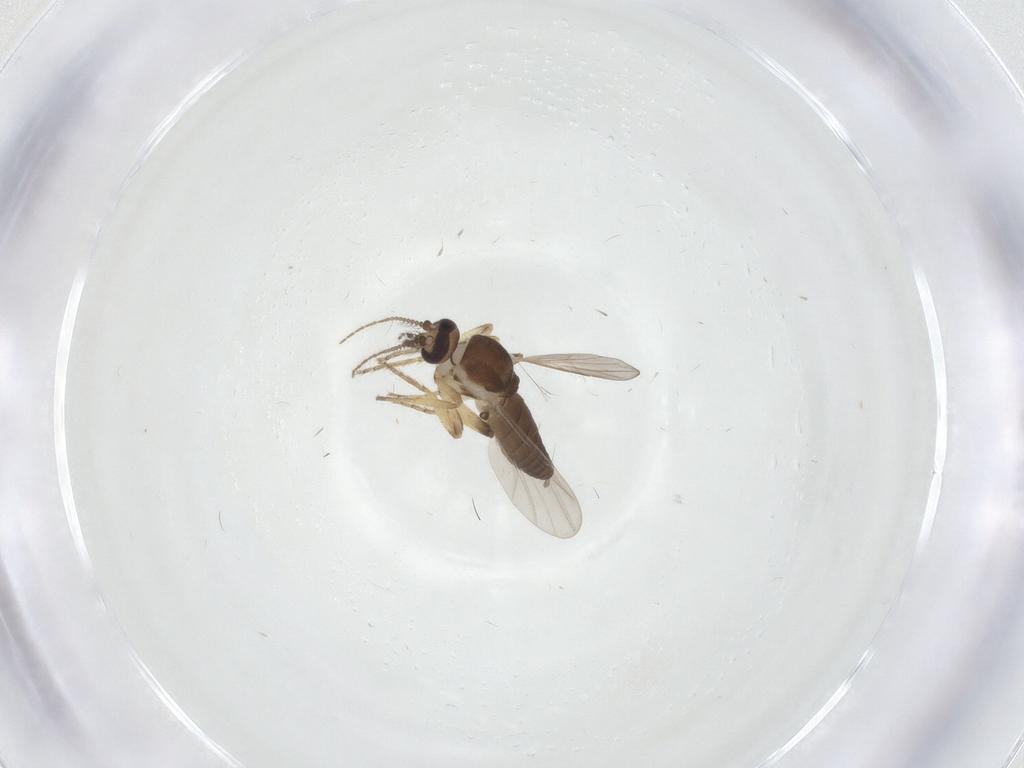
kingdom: Animalia
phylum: Arthropoda
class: Insecta
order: Diptera
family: Ceratopogonidae
